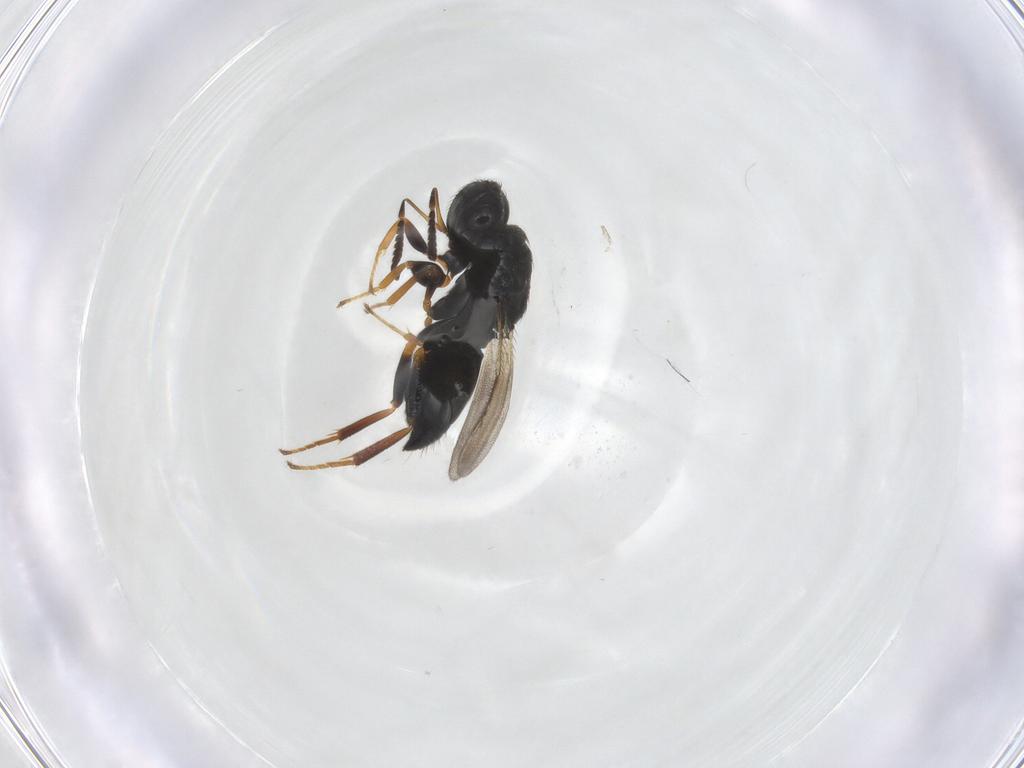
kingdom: Animalia
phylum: Arthropoda
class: Insecta
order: Hymenoptera
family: Pteromalidae
